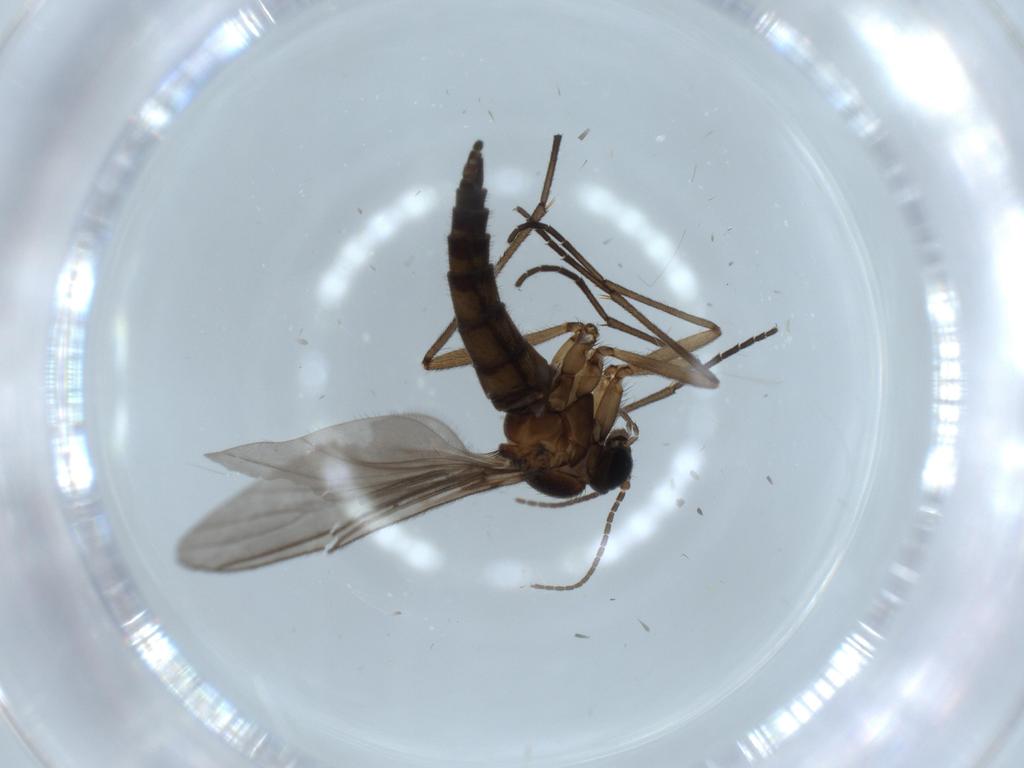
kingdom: Animalia
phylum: Arthropoda
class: Insecta
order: Diptera
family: Sciaridae
